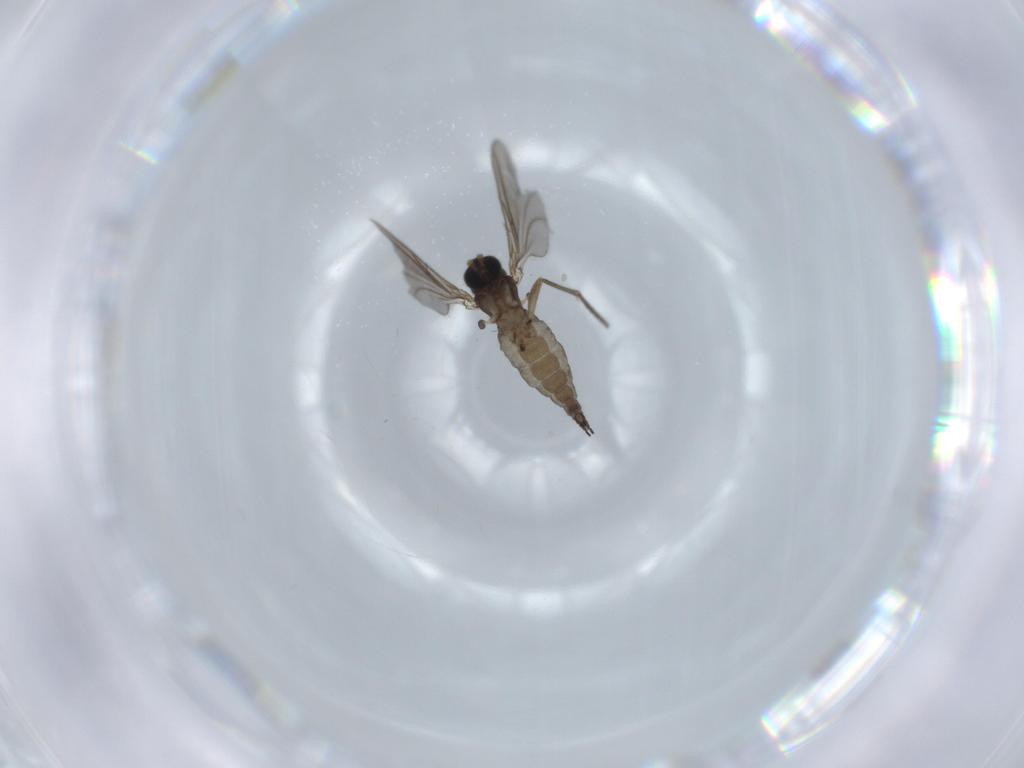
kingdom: Animalia
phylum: Arthropoda
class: Insecta
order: Diptera
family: Sciaridae
